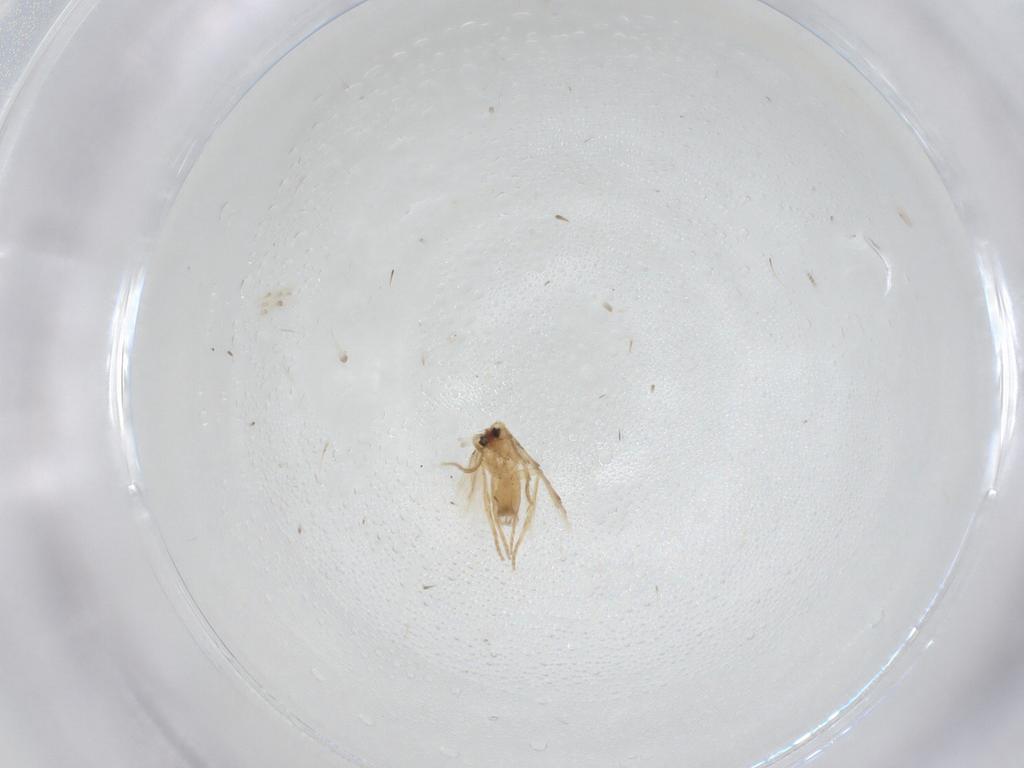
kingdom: Animalia
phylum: Arthropoda
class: Insecta
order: Lepidoptera
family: Nepticulidae
